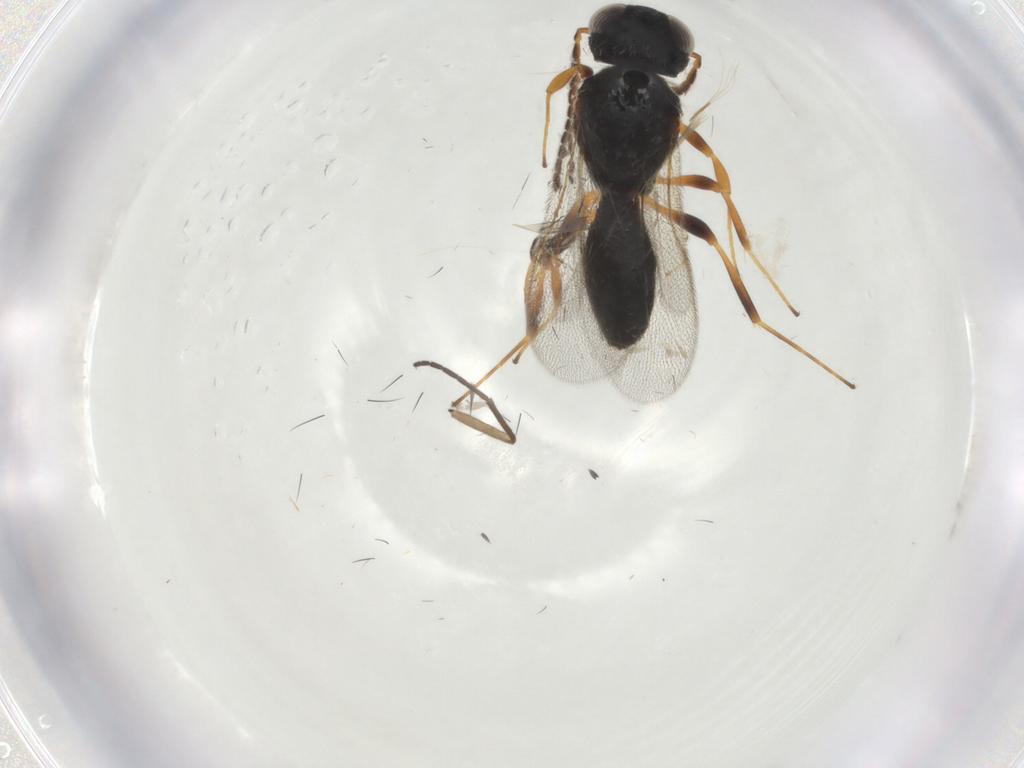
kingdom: Animalia
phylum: Arthropoda
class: Insecta
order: Hymenoptera
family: Scelionidae
